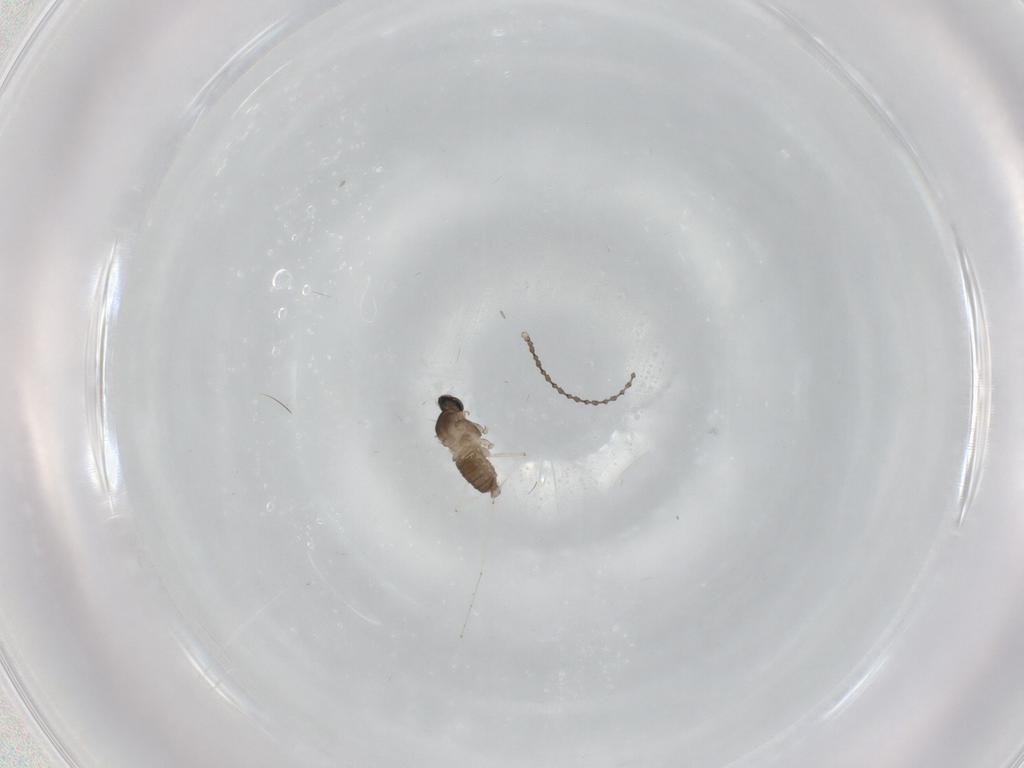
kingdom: Animalia
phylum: Arthropoda
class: Insecta
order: Diptera
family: Cecidomyiidae
